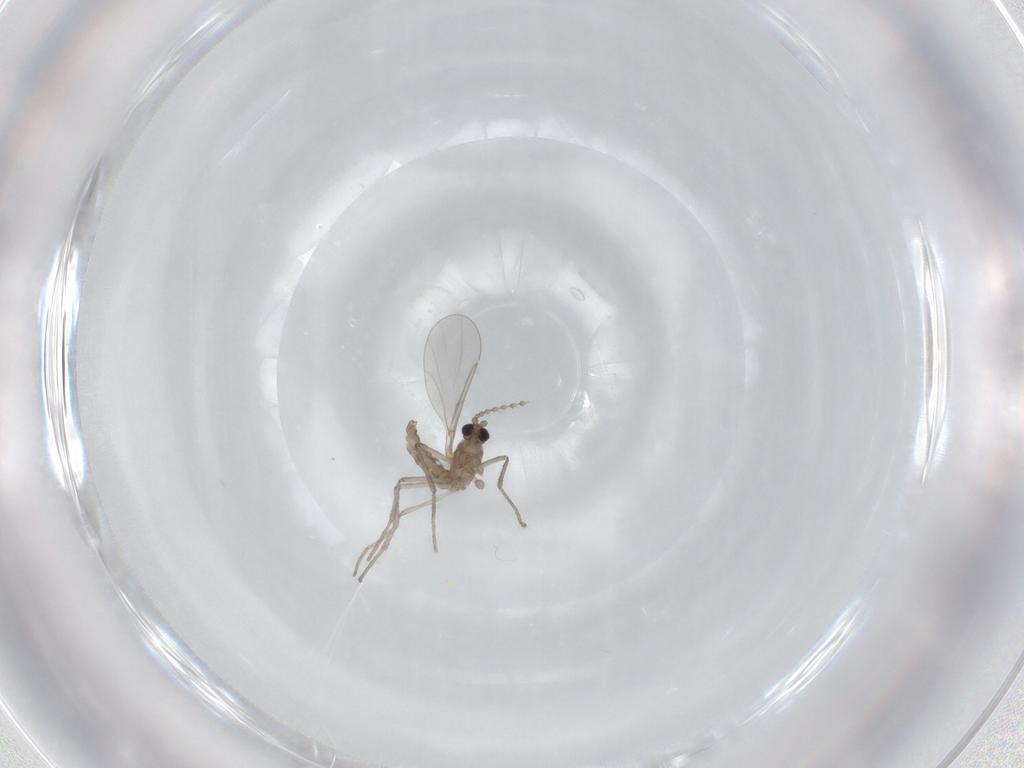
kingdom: Animalia
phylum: Arthropoda
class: Insecta
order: Diptera
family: Cecidomyiidae
